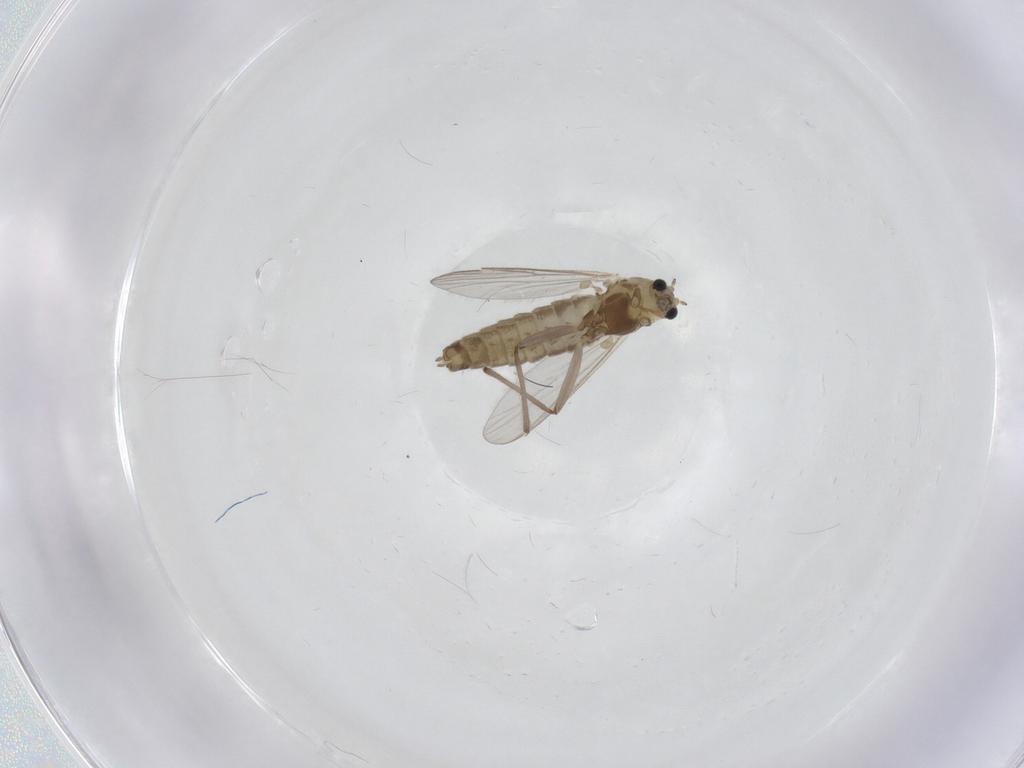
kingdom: Animalia
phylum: Arthropoda
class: Insecta
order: Diptera
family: Chironomidae
